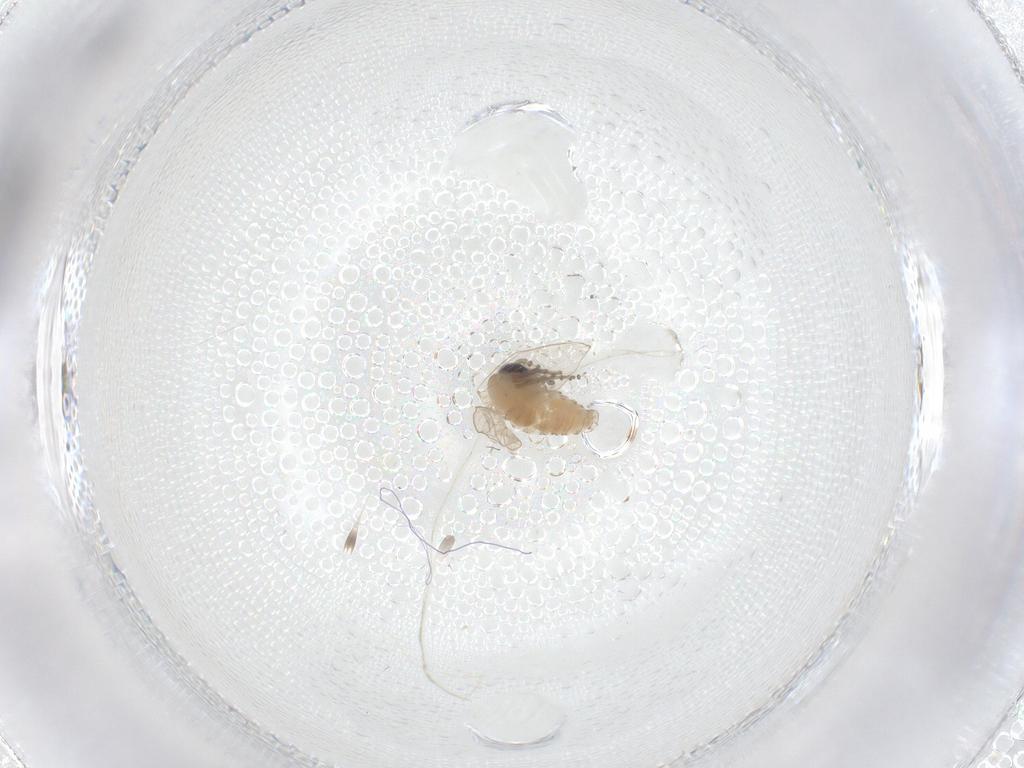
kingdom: Animalia
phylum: Arthropoda
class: Insecta
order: Diptera
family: Psychodidae
